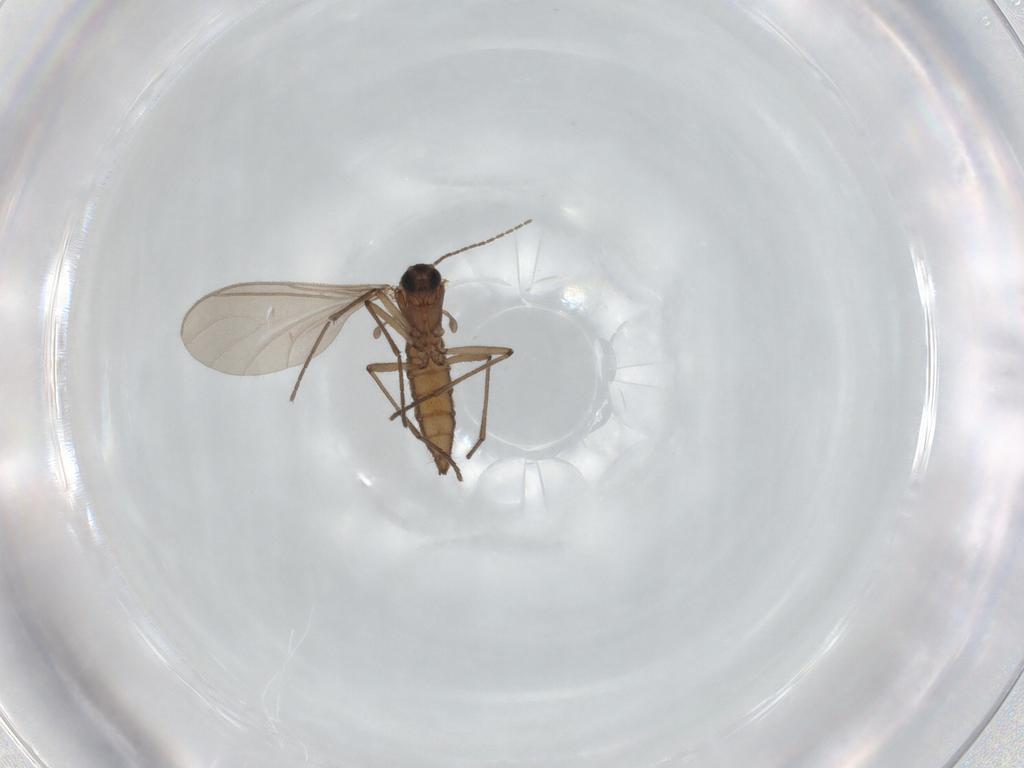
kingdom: Animalia
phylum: Arthropoda
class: Insecta
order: Diptera
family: Sciaridae
